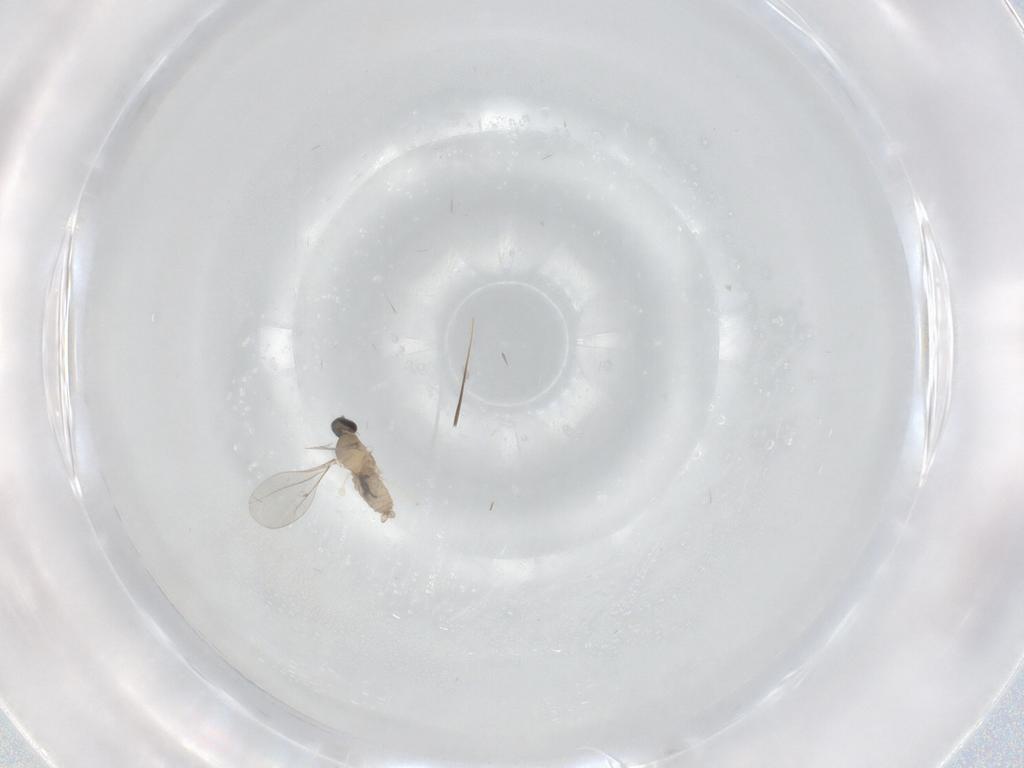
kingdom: Animalia
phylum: Arthropoda
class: Insecta
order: Diptera
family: Cecidomyiidae
